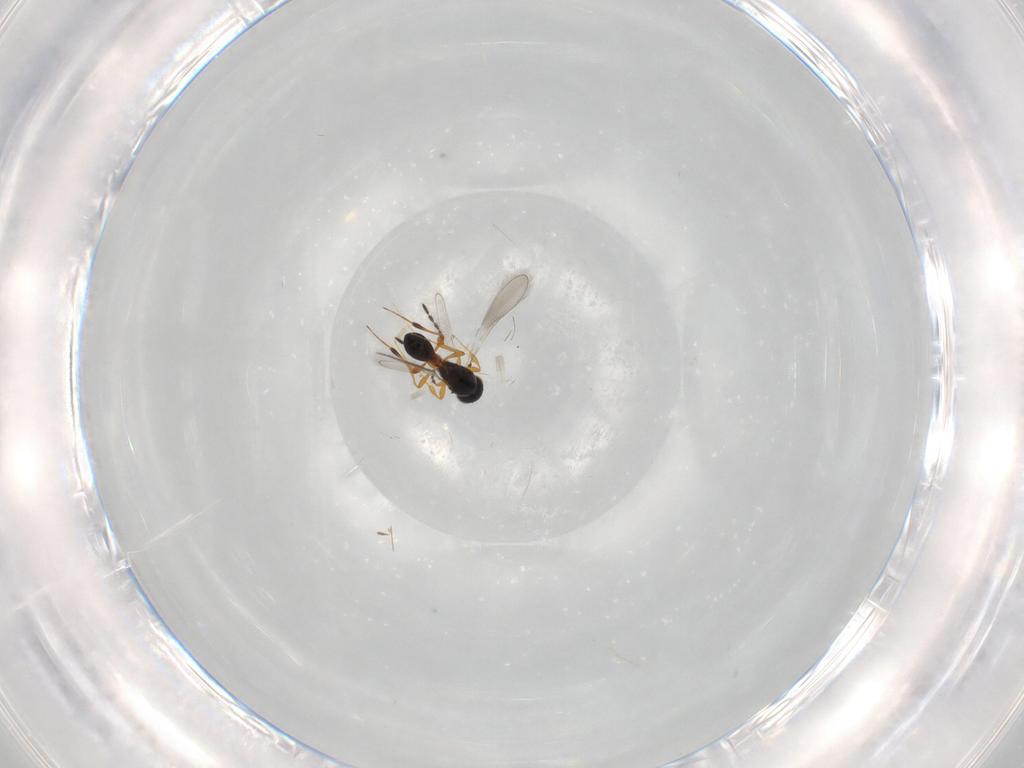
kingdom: Animalia
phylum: Arthropoda
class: Insecta
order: Hymenoptera
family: Platygastridae
